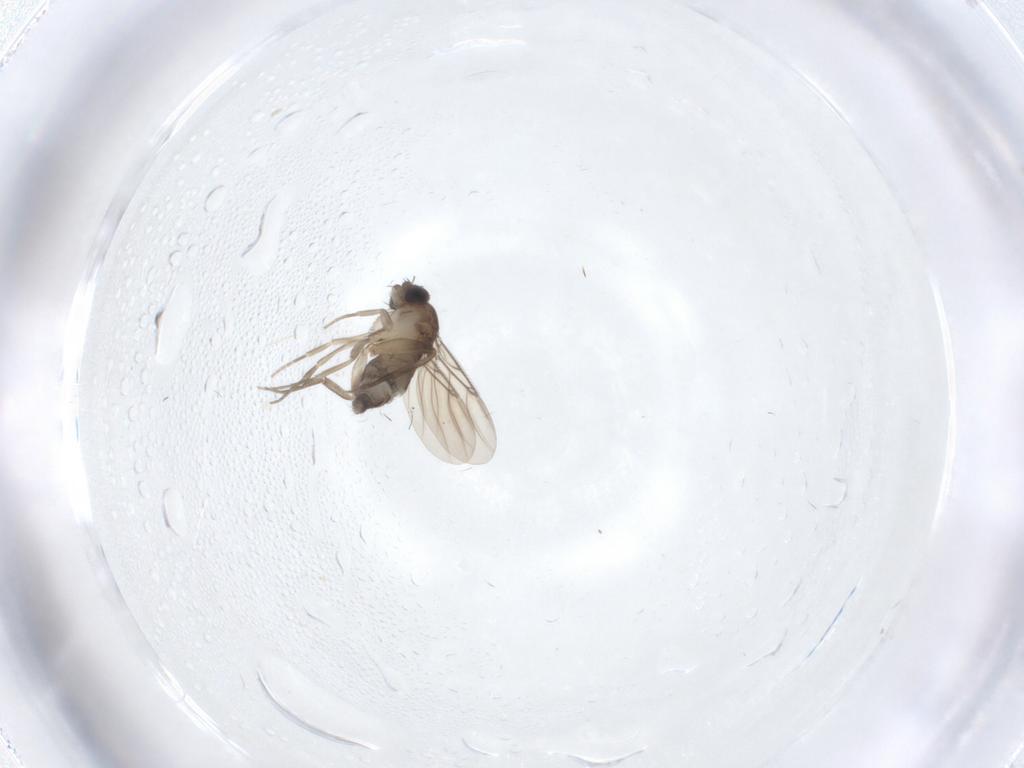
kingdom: Animalia
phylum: Arthropoda
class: Insecta
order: Diptera
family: Phoridae
